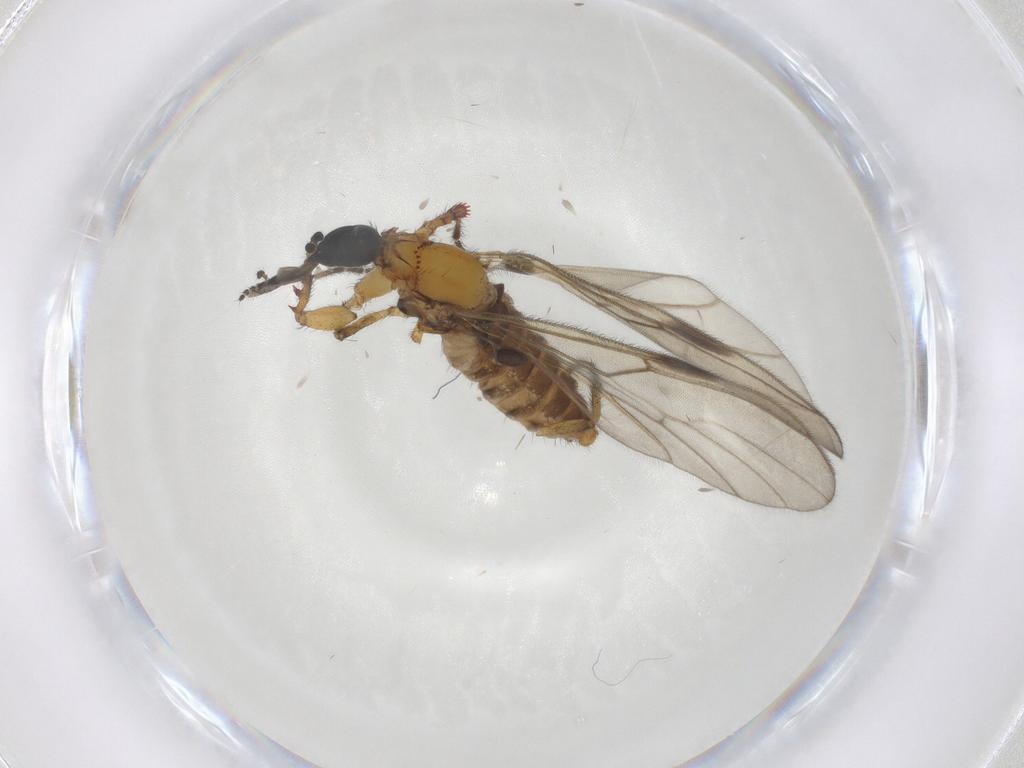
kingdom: Animalia
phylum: Arthropoda
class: Insecta
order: Diptera
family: Bibionidae
